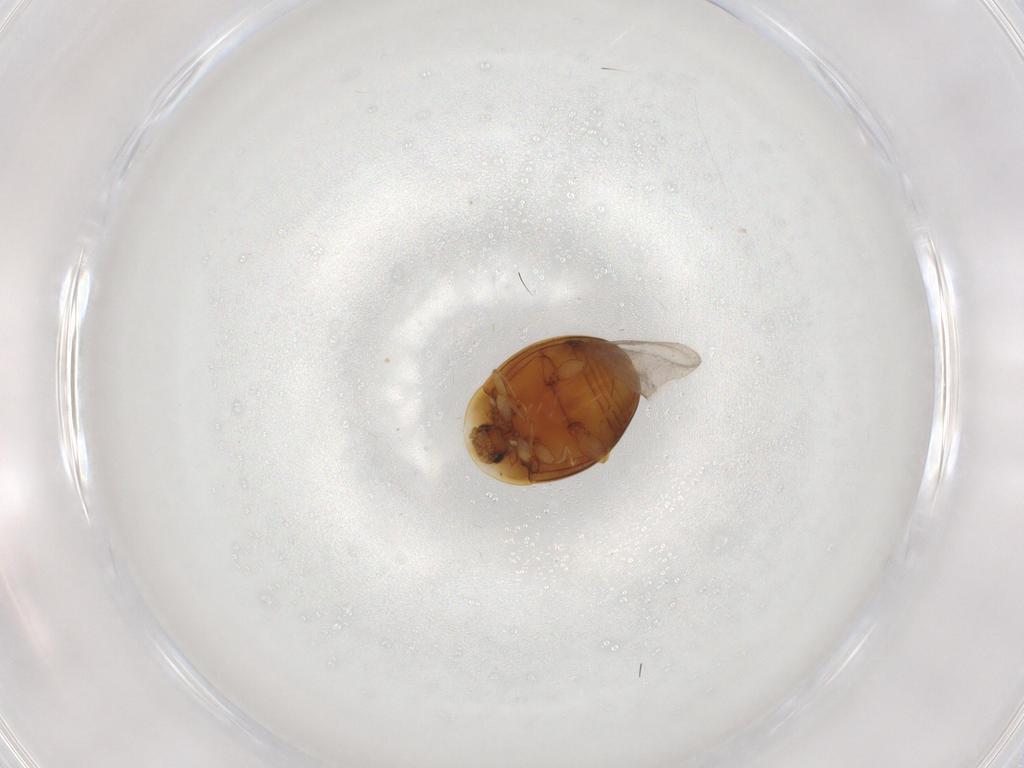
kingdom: Animalia
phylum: Arthropoda
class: Insecta
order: Coleoptera
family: Corylophidae
